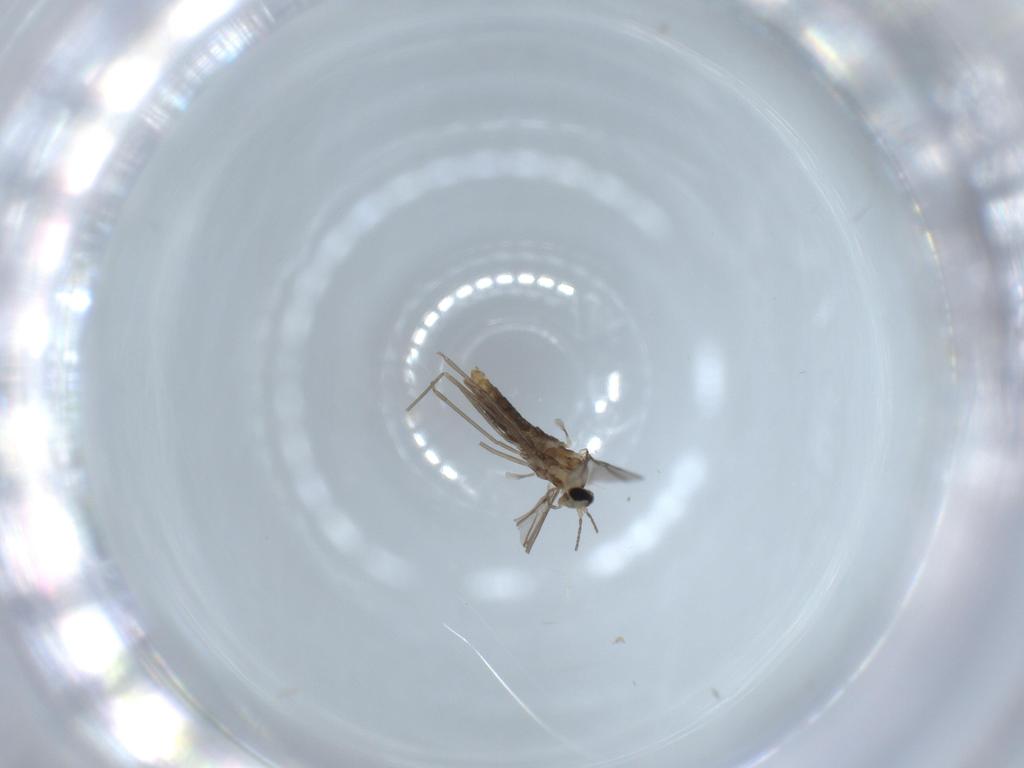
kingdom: Animalia
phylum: Arthropoda
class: Insecta
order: Diptera
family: Cecidomyiidae
